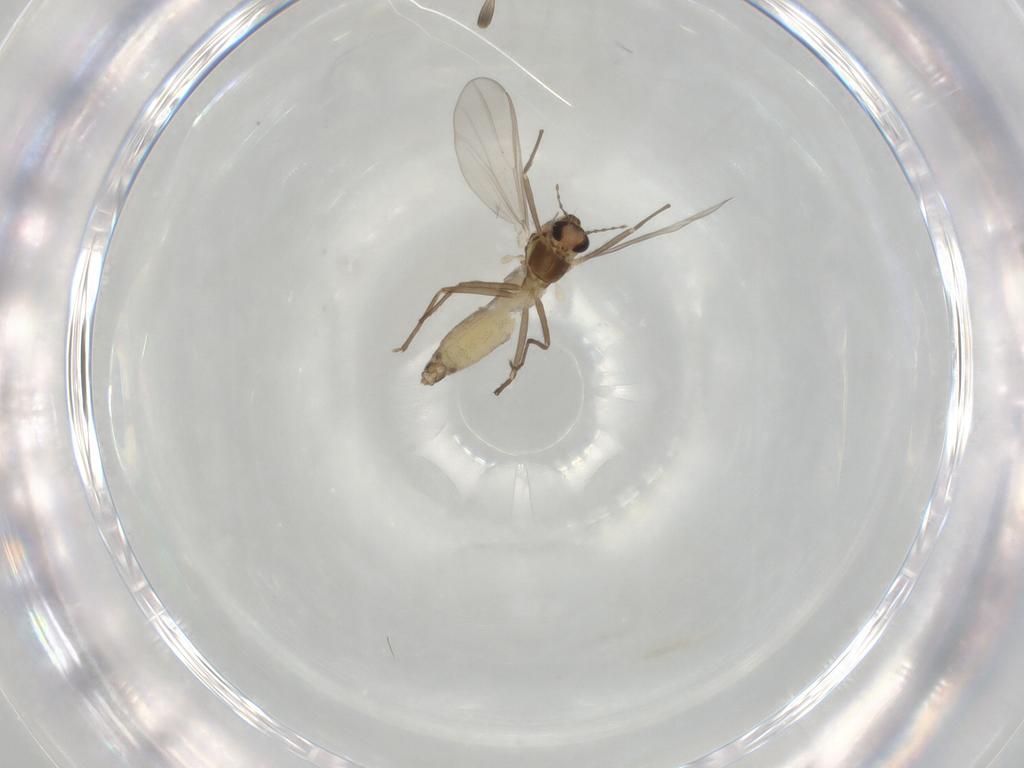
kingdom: Animalia
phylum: Arthropoda
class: Insecta
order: Diptera
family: Chironomidae
